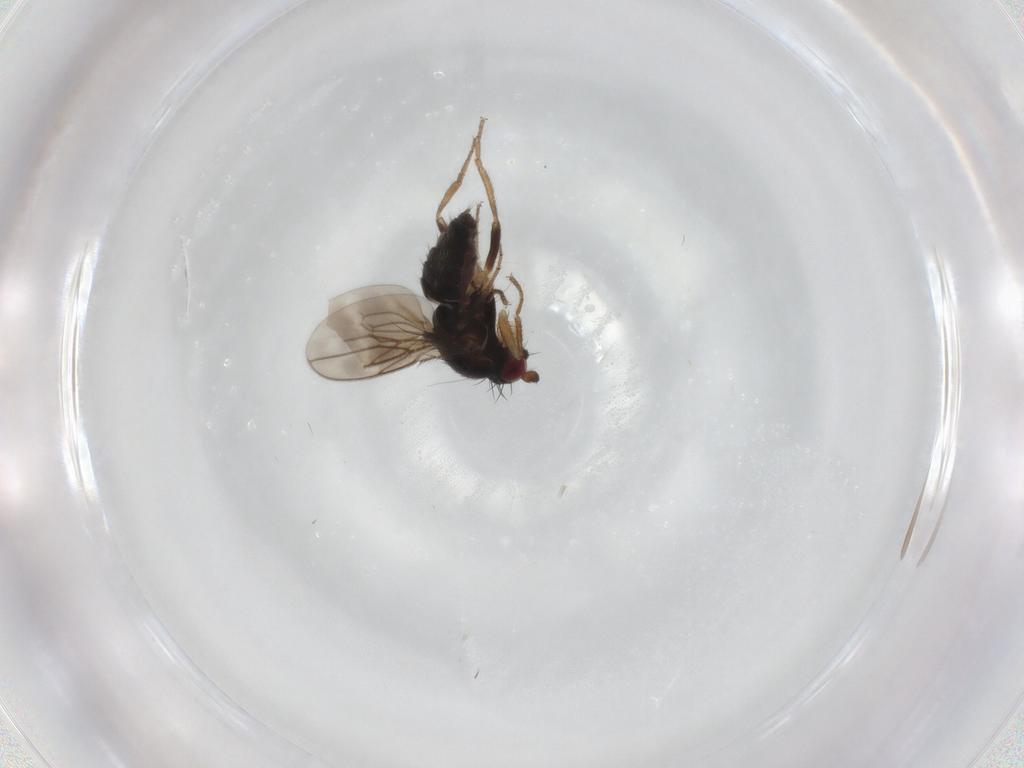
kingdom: Animalia
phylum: Arthropoda
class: Insecta
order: Diptera
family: Sphaeroceridae
